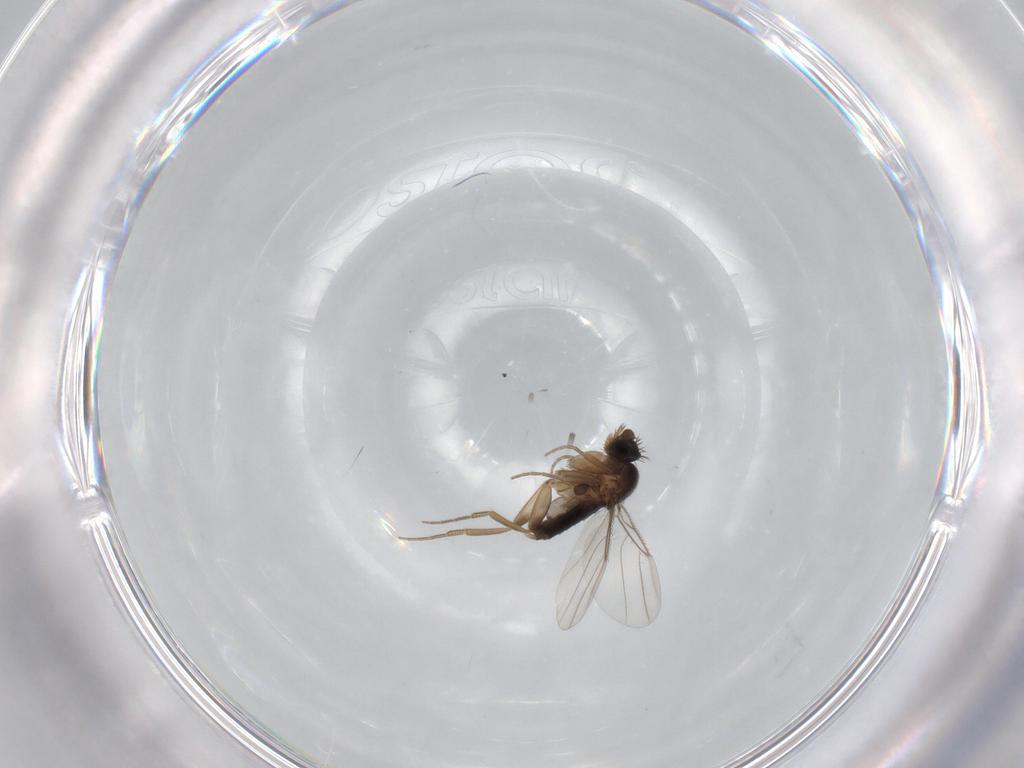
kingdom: Animalia
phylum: Arthropoda
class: Insecta
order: Diptera
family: Phoridae
